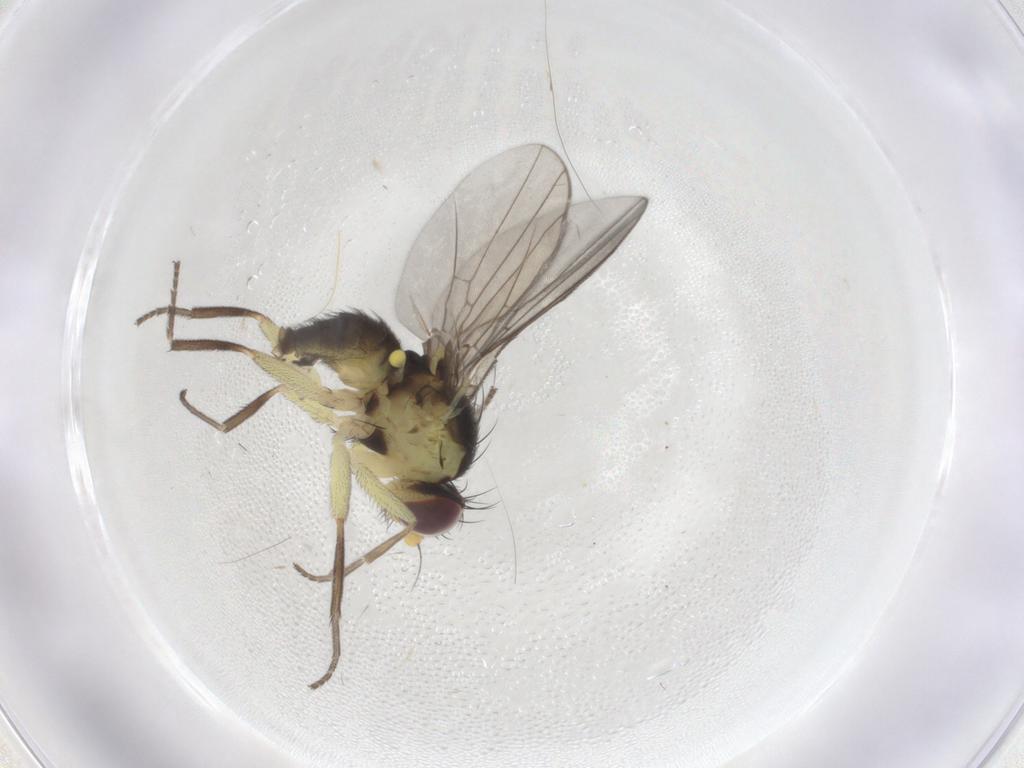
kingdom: Animalia
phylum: Arthropoda
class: Insecta
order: Diptera
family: Agromyzidae
